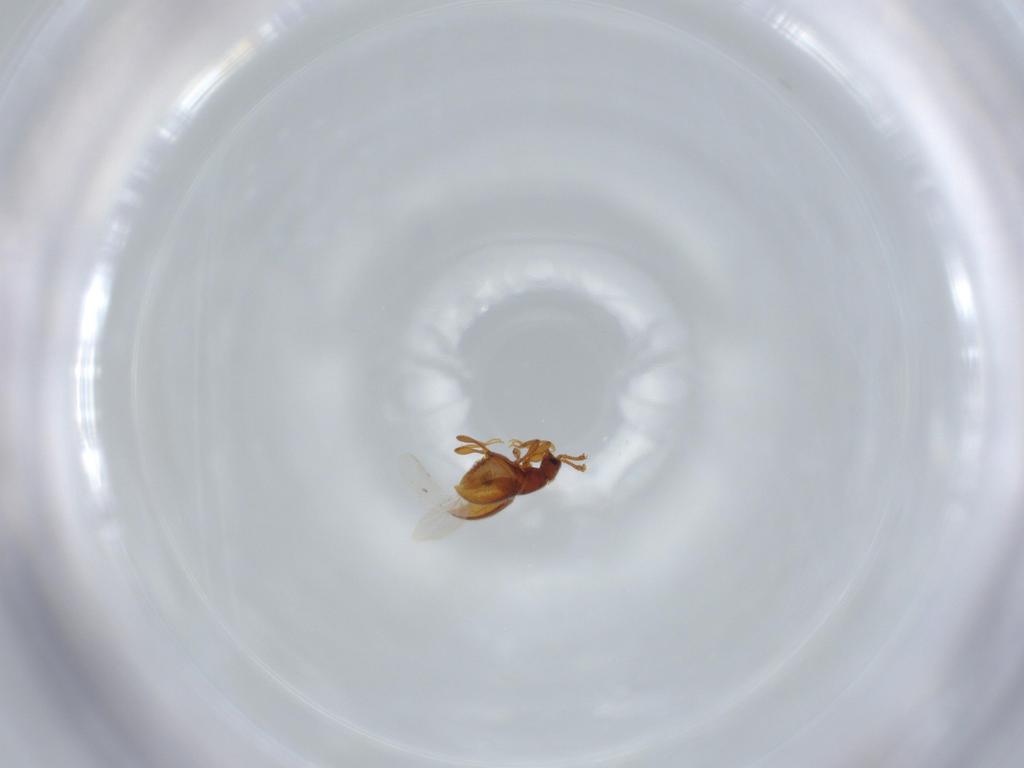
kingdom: Animalia
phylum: Arthropoda
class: Insecta
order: Coleoptera
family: Staphylinidae
